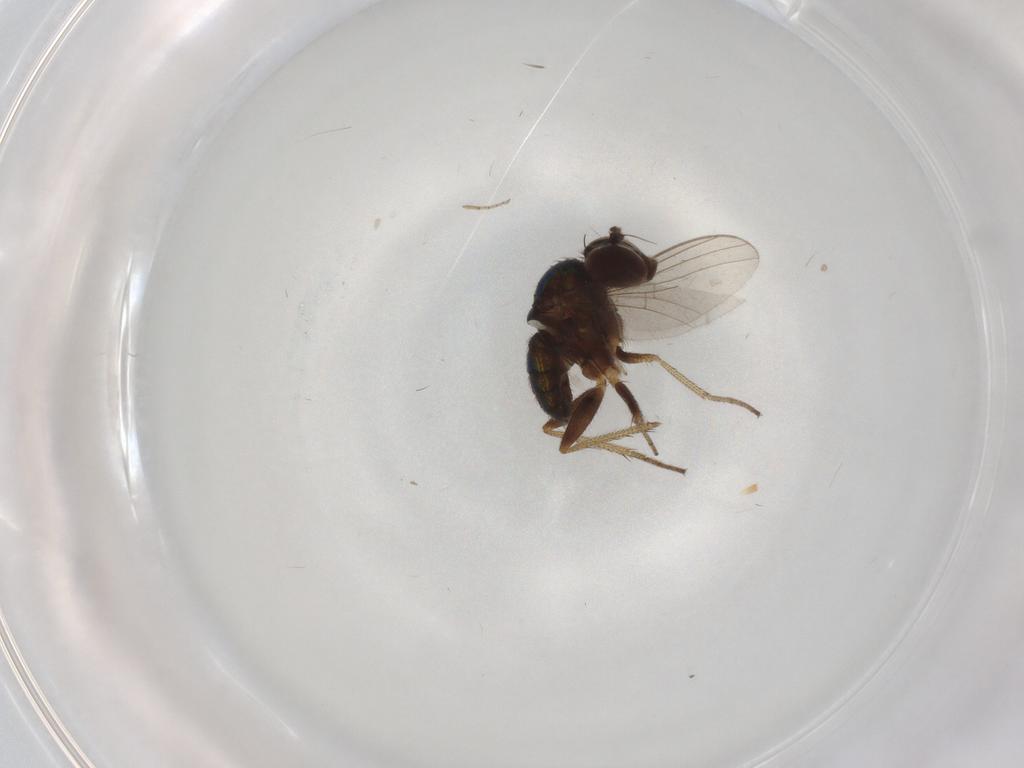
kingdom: Animalia
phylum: Arthropoda
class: Insecta
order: Diptera
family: Dolichopodidae
